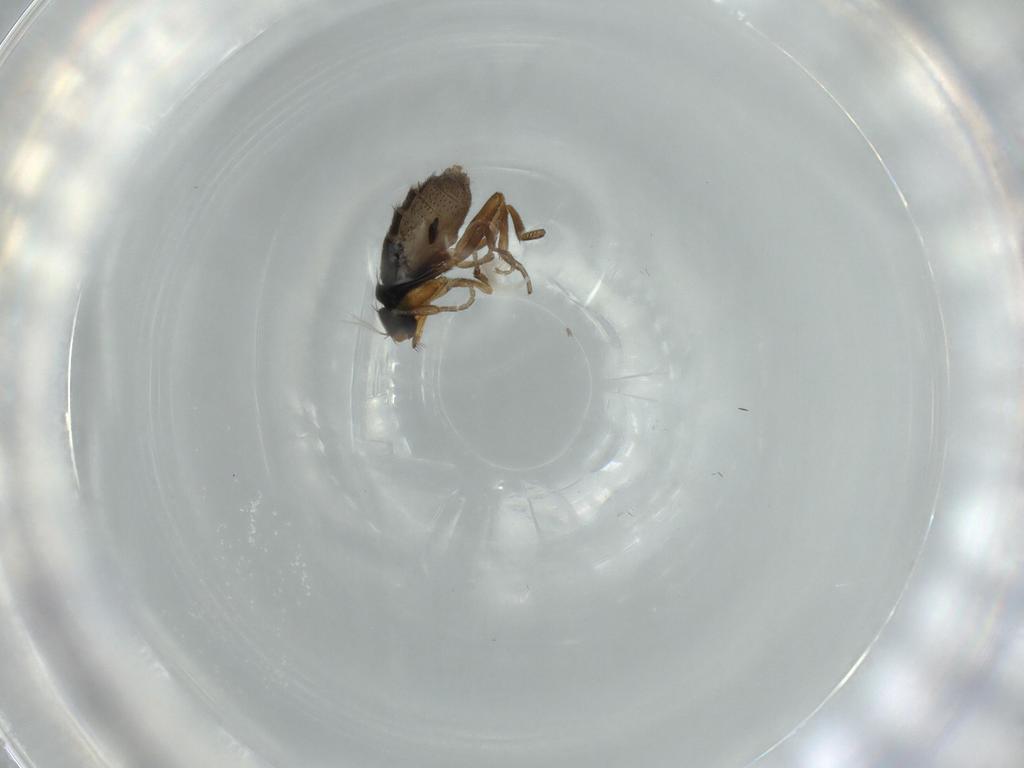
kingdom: Animalia
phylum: Arthropoda
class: Insecta
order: Diptera
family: Phoridae
